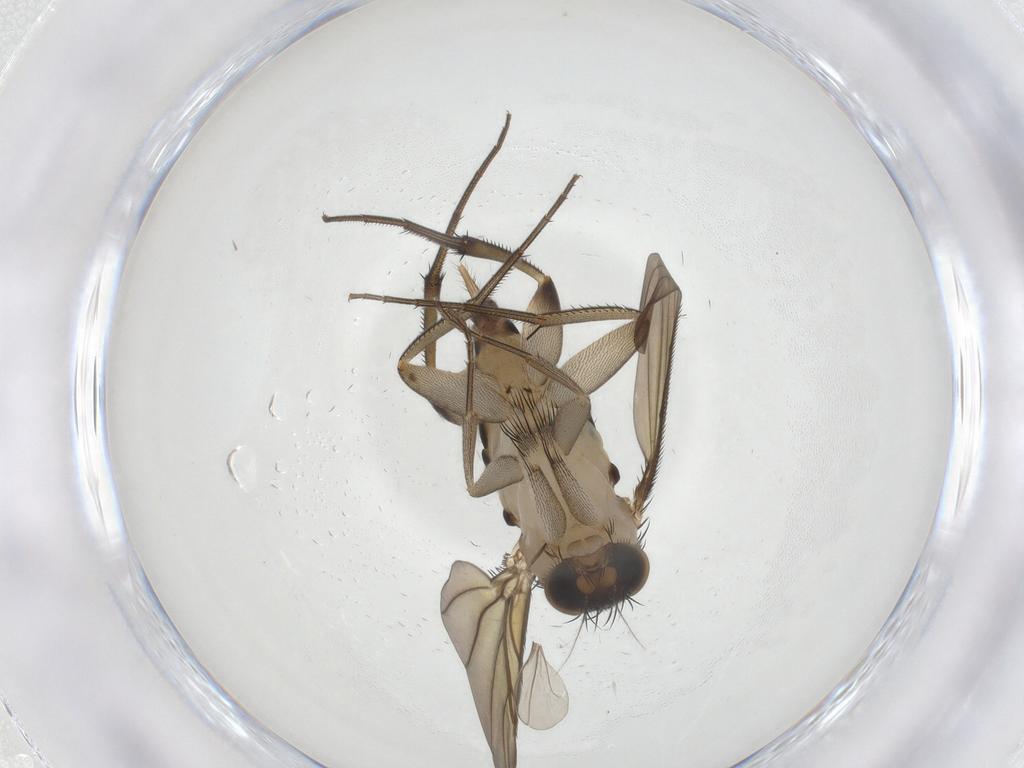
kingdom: Animalia
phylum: Arthropoda
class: Insecta
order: Diptera
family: Phoridae
